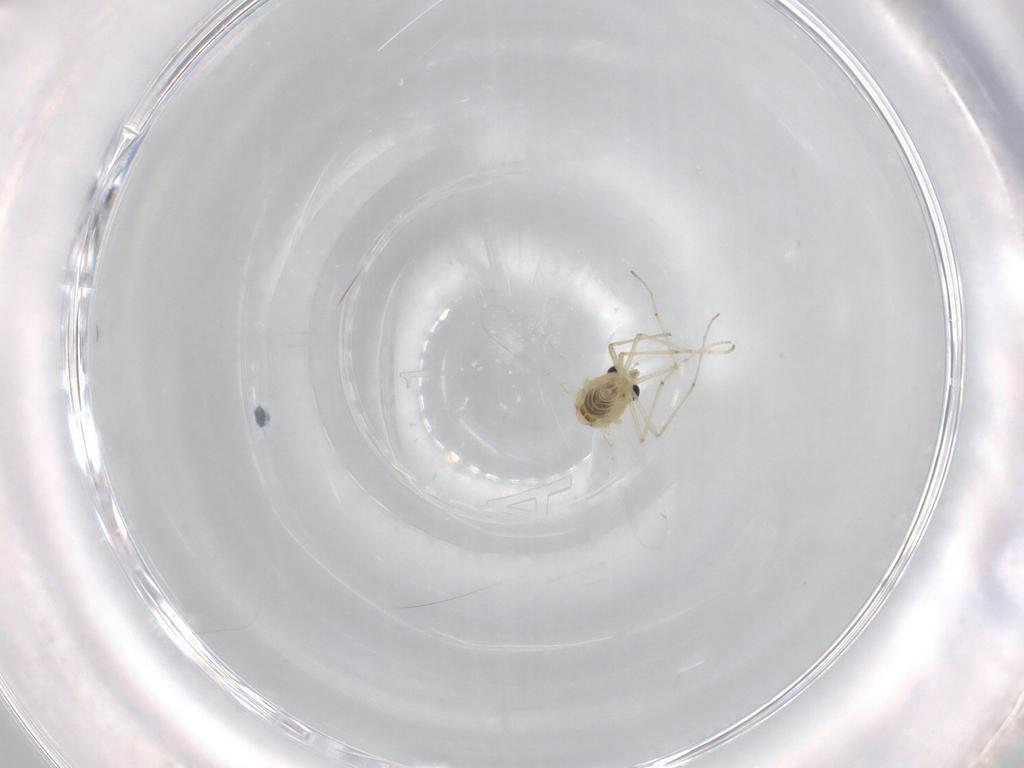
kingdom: Animalia
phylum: Arthropoda
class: Insecta
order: Diptera
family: Chironomidae
